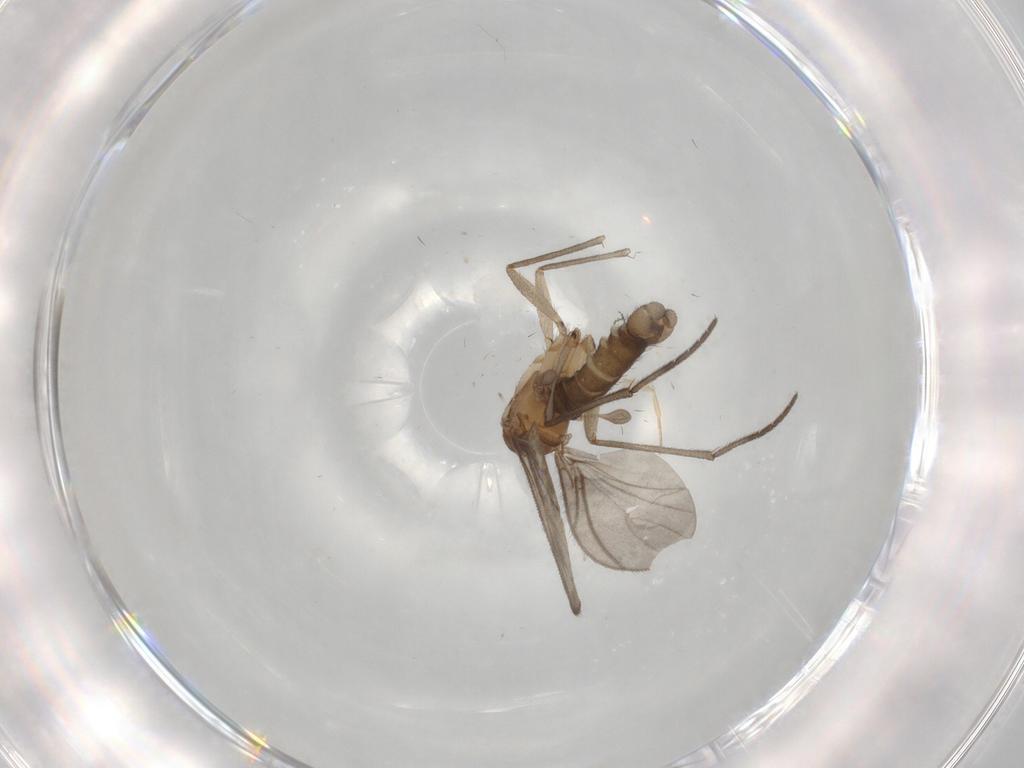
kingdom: Animalia
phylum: Arthropoda
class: Insecta
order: Diptera
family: Sciaridae
